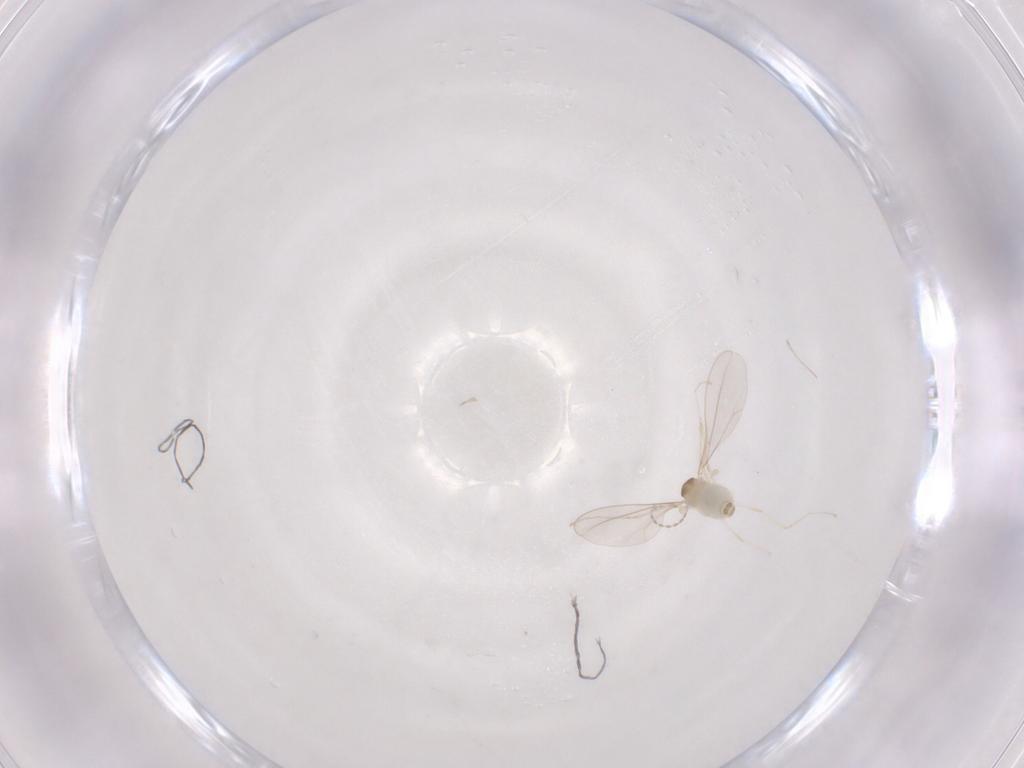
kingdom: Animalia
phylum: Arthropoda
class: Insecta
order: Diptera
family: Cecidomyiidae
